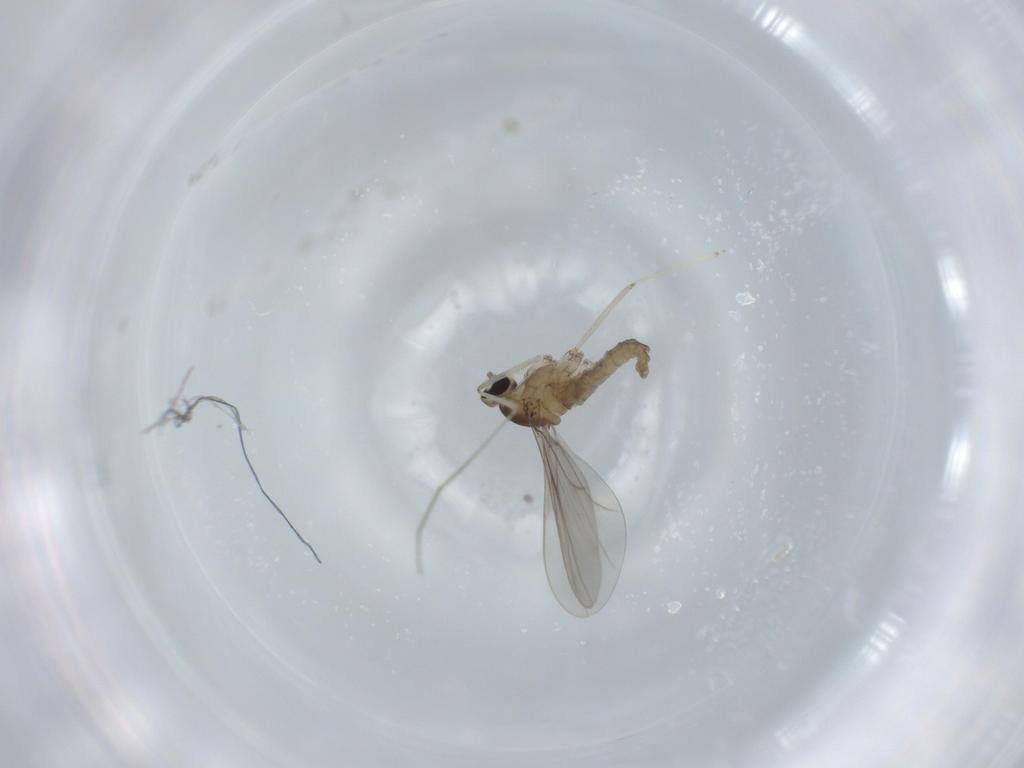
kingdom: Animalia
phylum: Arthropoda
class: Insecta
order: Diptera
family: Cecidomyiidae
